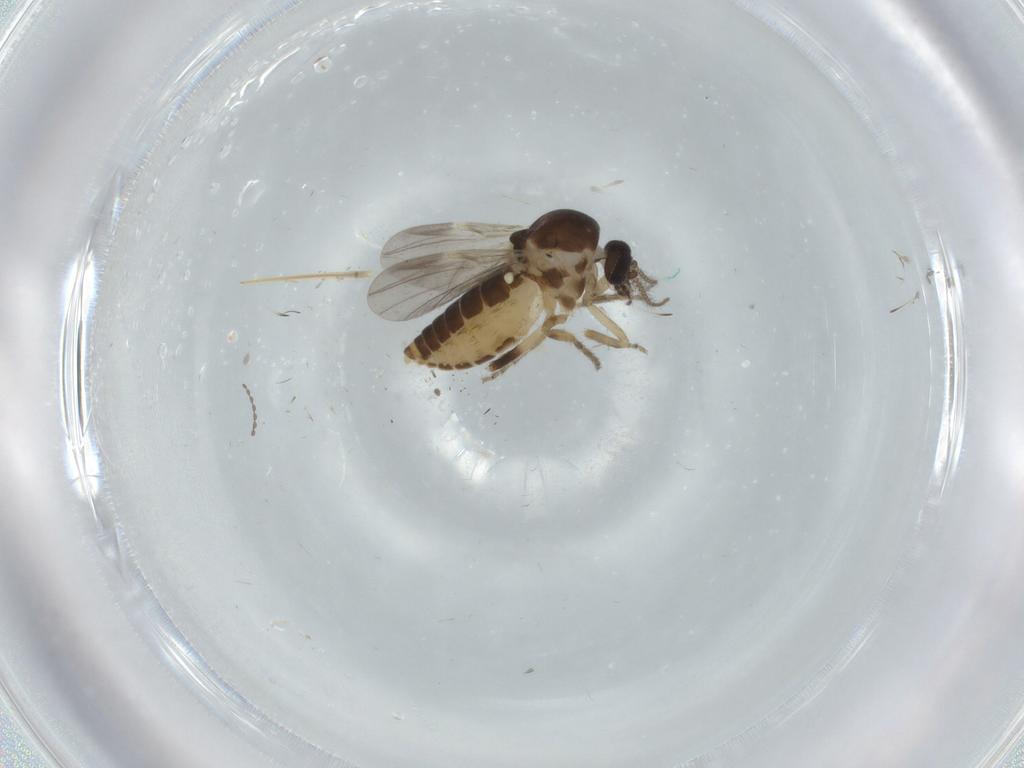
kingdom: Animalia
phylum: Arthropoda
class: Insecta
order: Diptera
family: Ceratopogonidae
